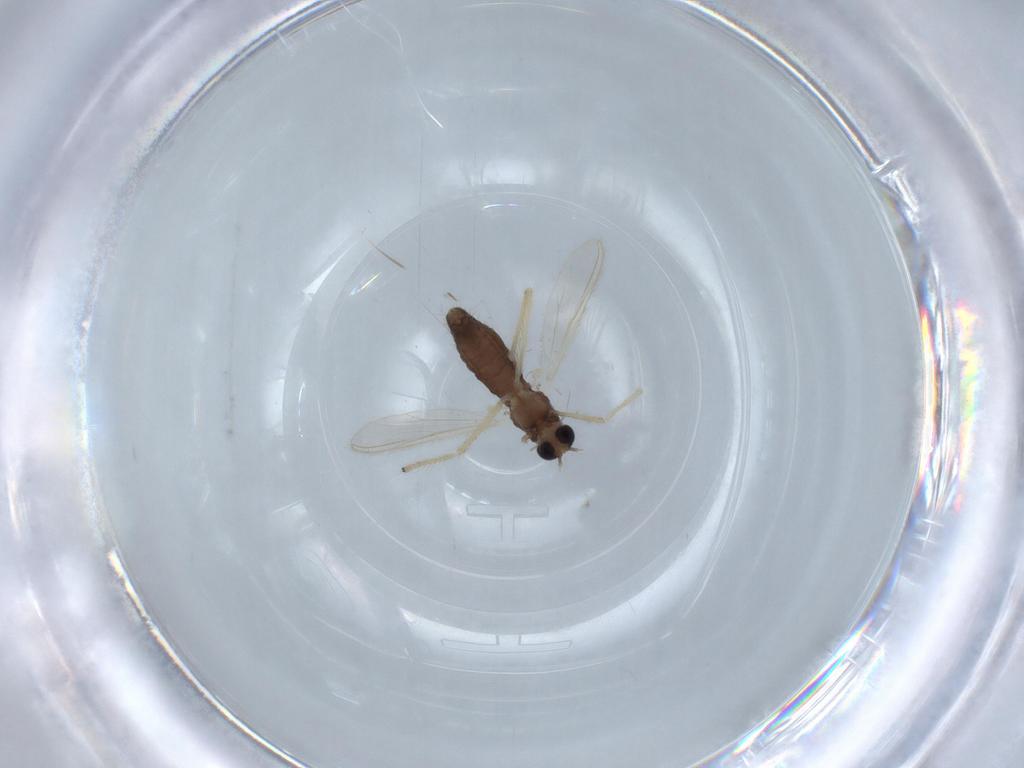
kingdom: Animalia
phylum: Arthropoda
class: Insecta
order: Diptera
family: Chironomidae
